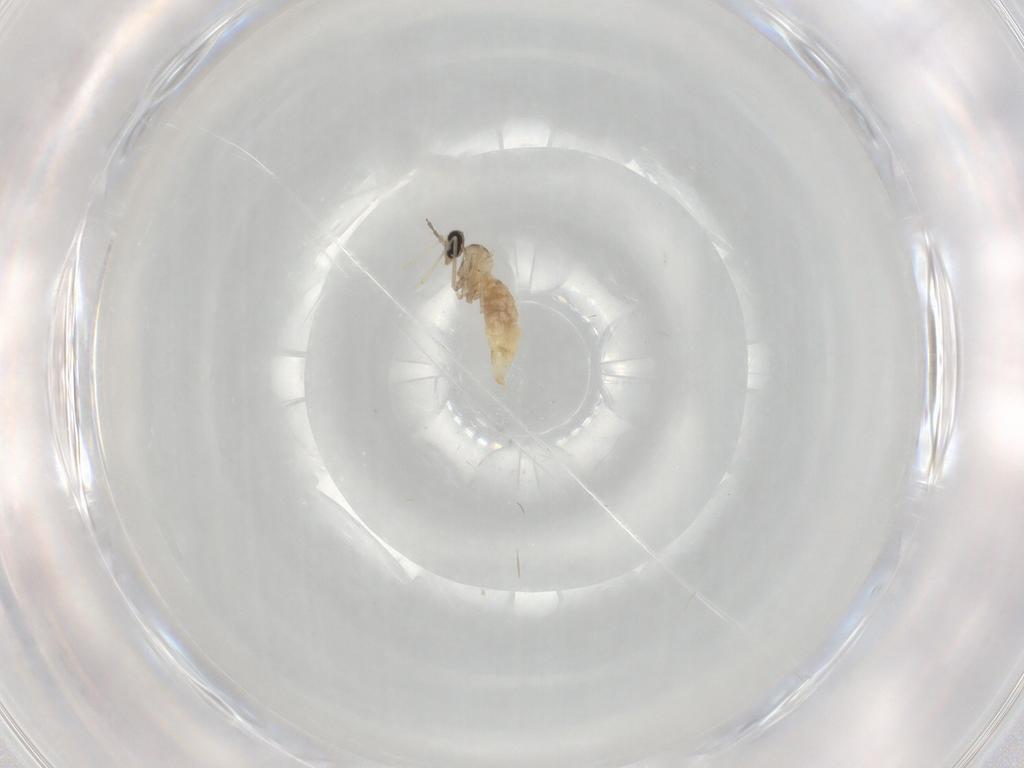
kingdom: Animalia
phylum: Arthropoda
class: Insecta
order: Diptera
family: Cecidomyiidae
